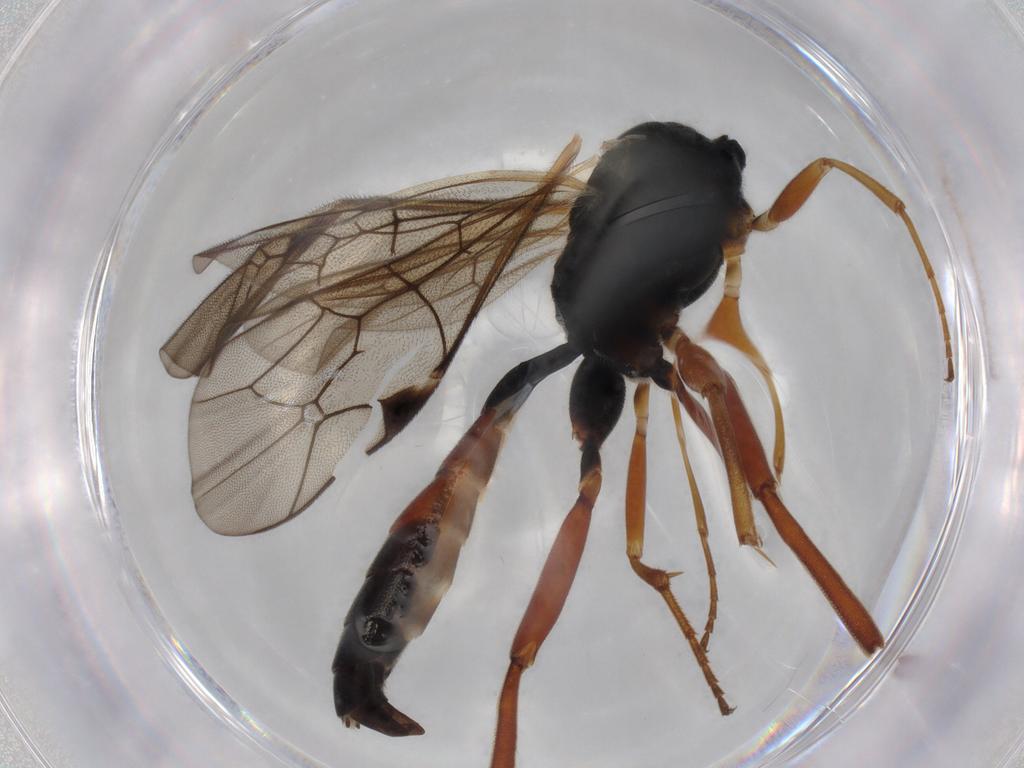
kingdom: Animalia
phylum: Arthropoda
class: Insecta
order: Hymenoptera
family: Formicidae
